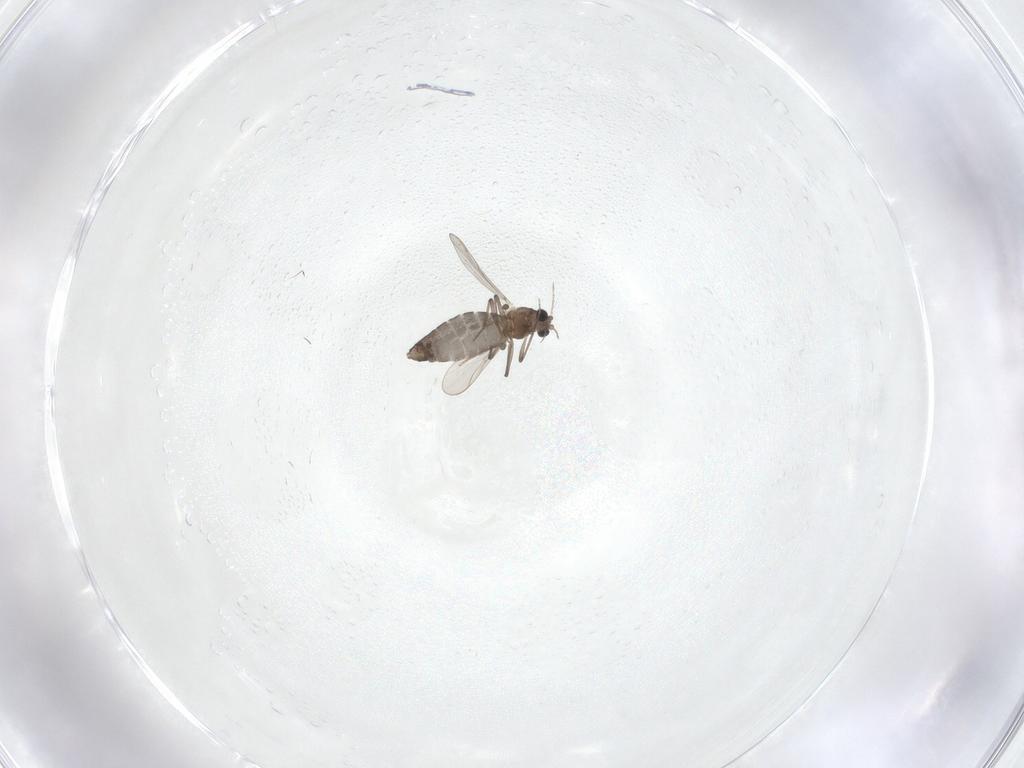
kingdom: Animalia
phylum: Arthropoda
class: Insecta
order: Diptera
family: Chironomidae
